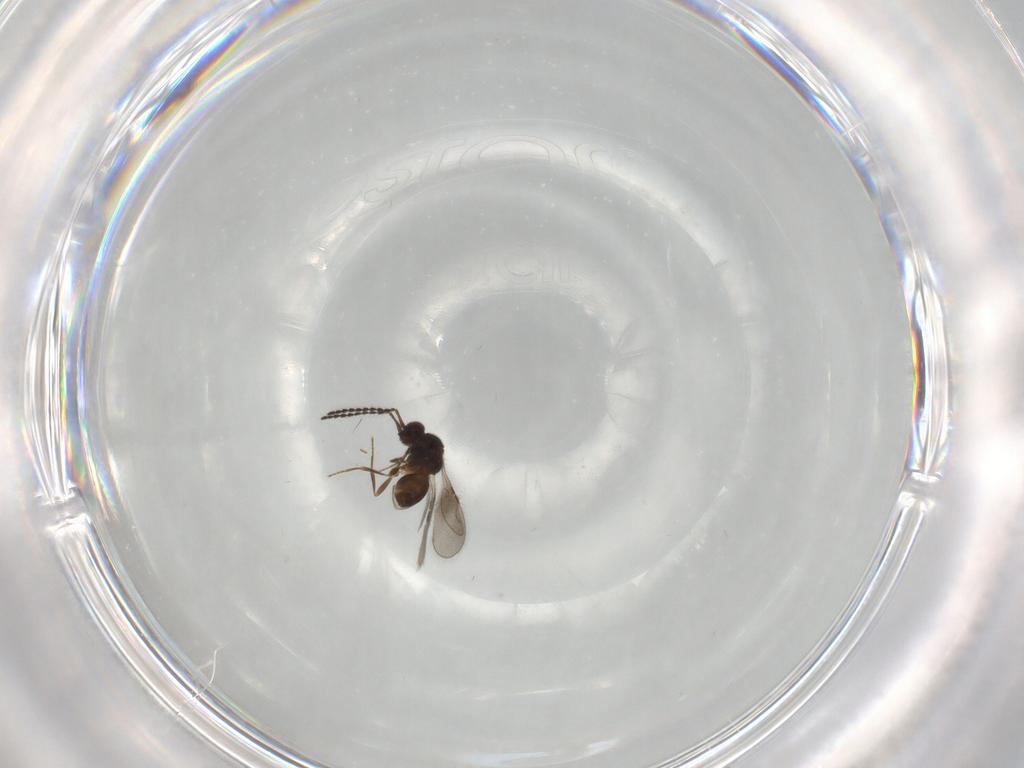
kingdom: Animalia
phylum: Arthropoda
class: Insecta
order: Hymenoptera
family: Ceraphronidae
